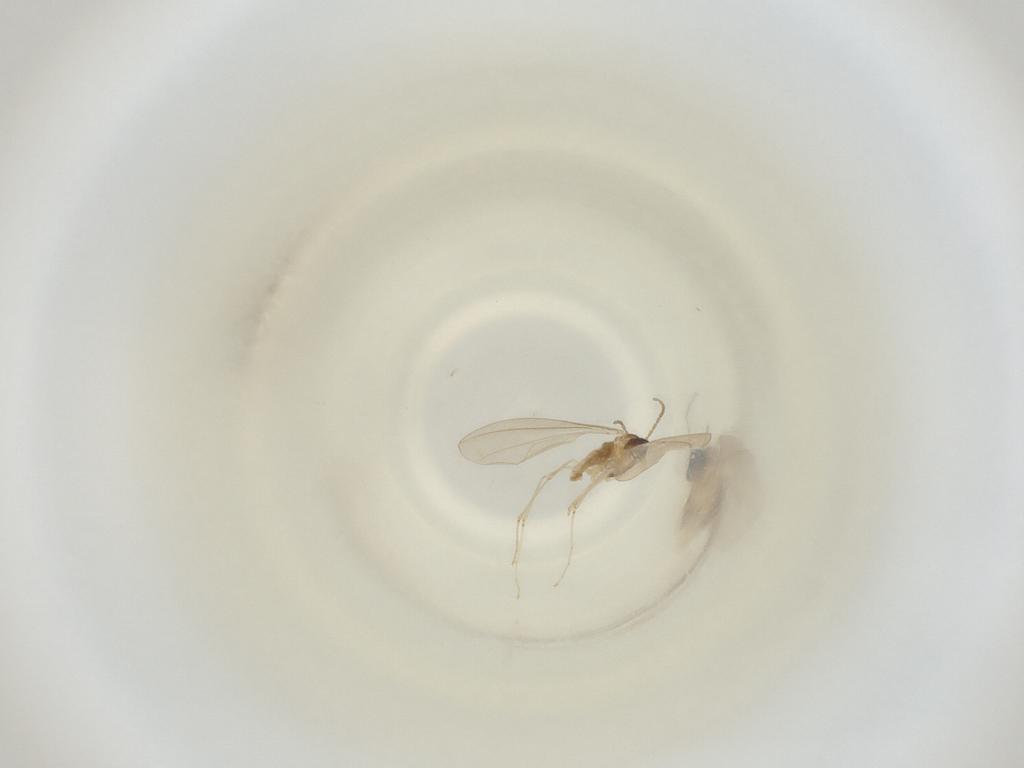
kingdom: Animalia
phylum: Arthropoda
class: Insecta
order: Diptera
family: Cecidomyiidae
